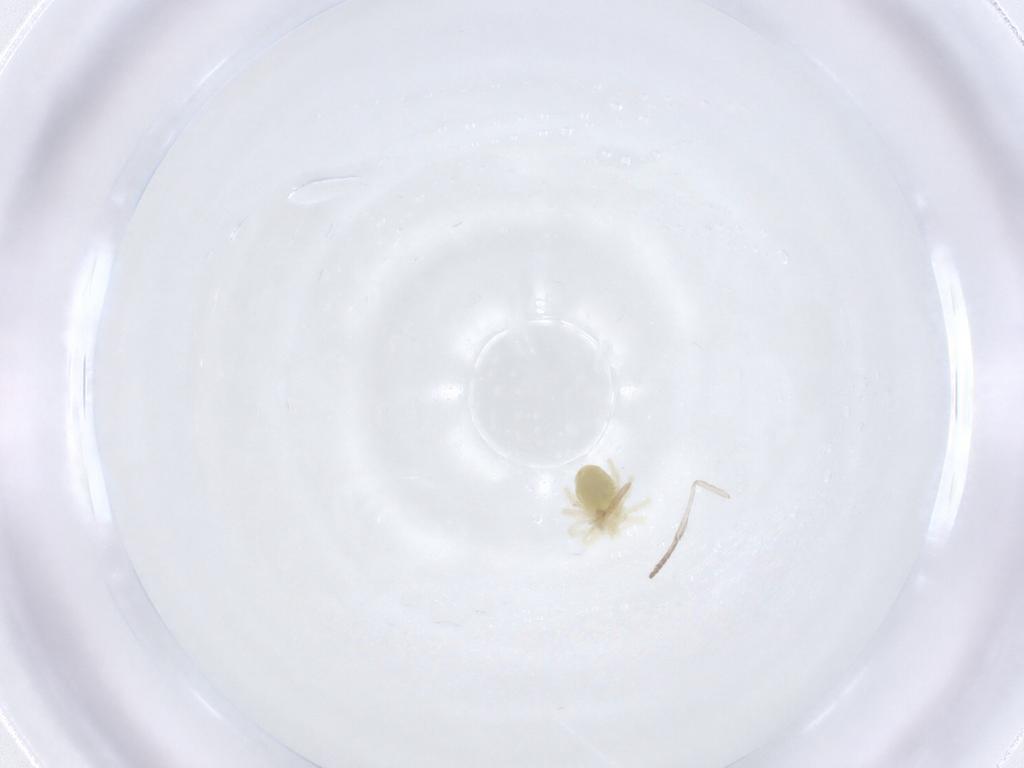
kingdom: Animalia
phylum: Arthropoda
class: Arachnida
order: Trombidiformes
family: Anystidae
